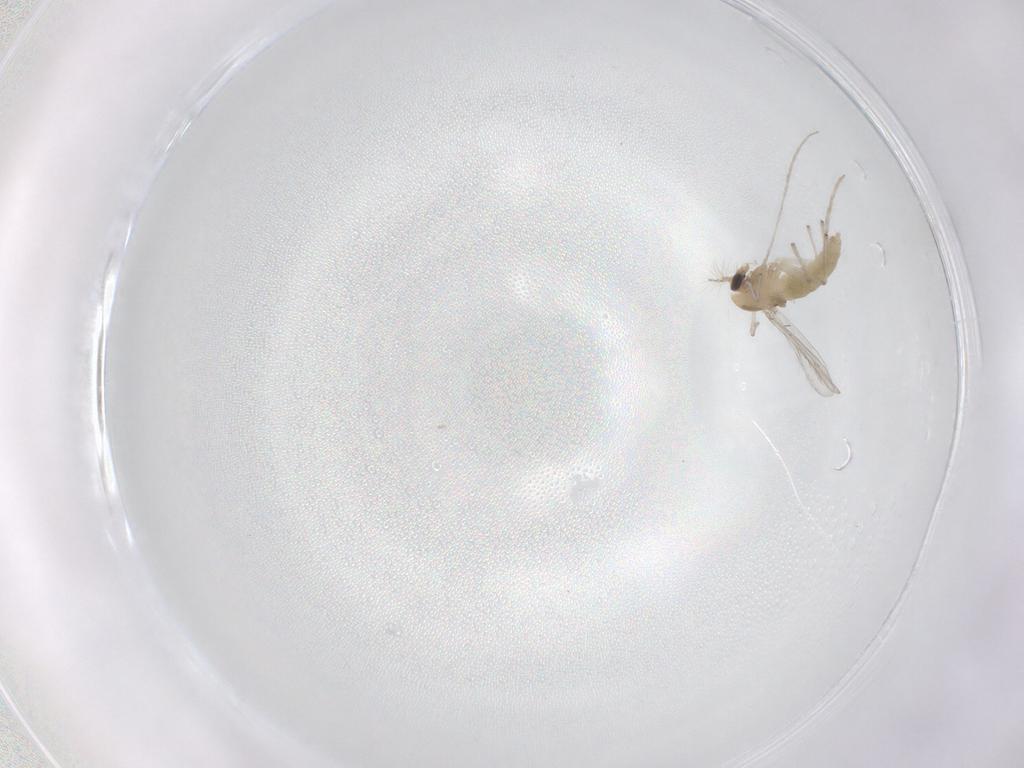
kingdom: Animalia
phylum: Arthropoda
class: Insecta
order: Diptera
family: Chironomidae
